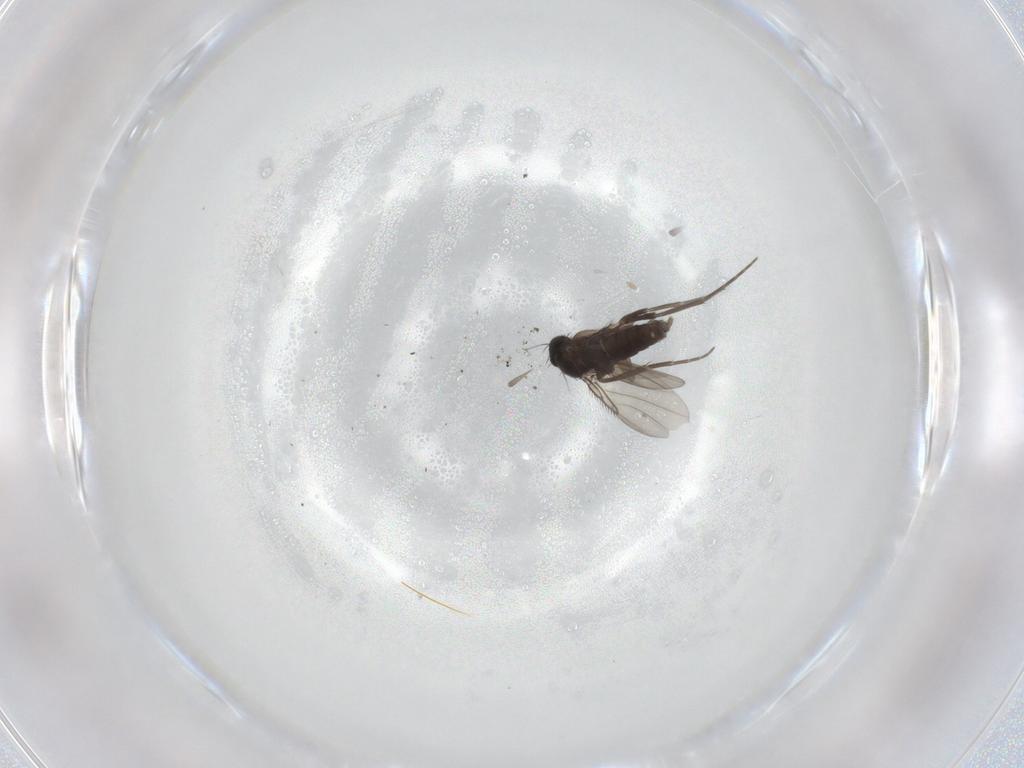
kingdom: Animalia
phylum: Arthropoda
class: Insecta
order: Diptera
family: Phoridae
